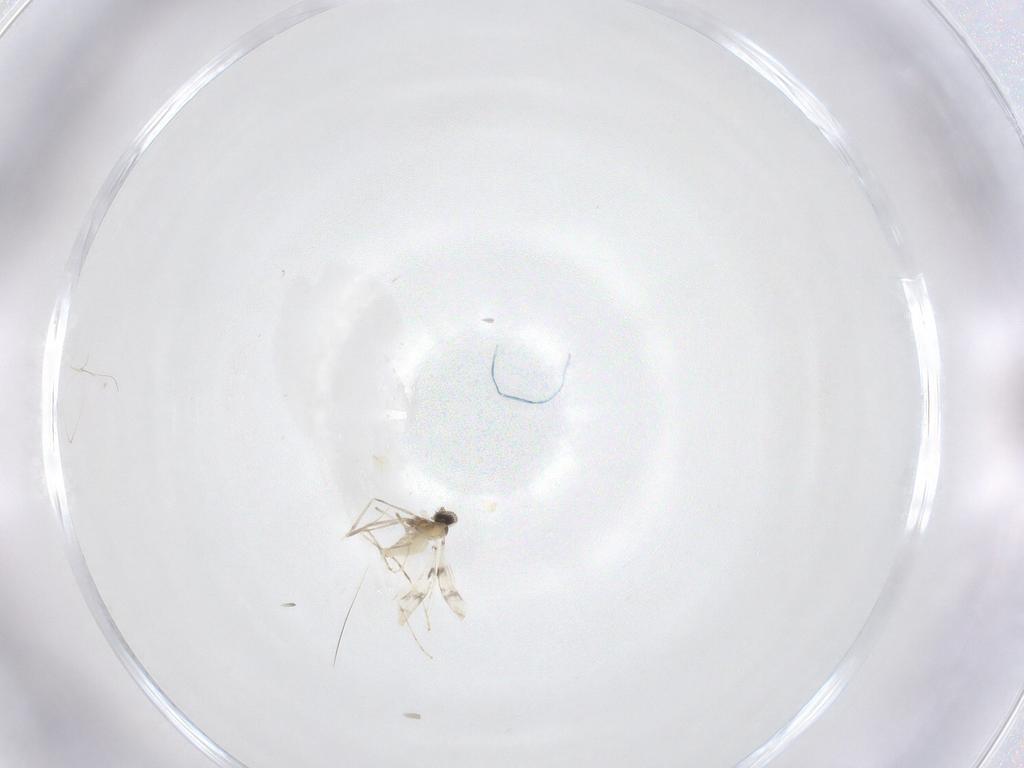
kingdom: Animalia
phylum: Arthropoda
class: Insecta
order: Diptera
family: Cecidomyiidae
